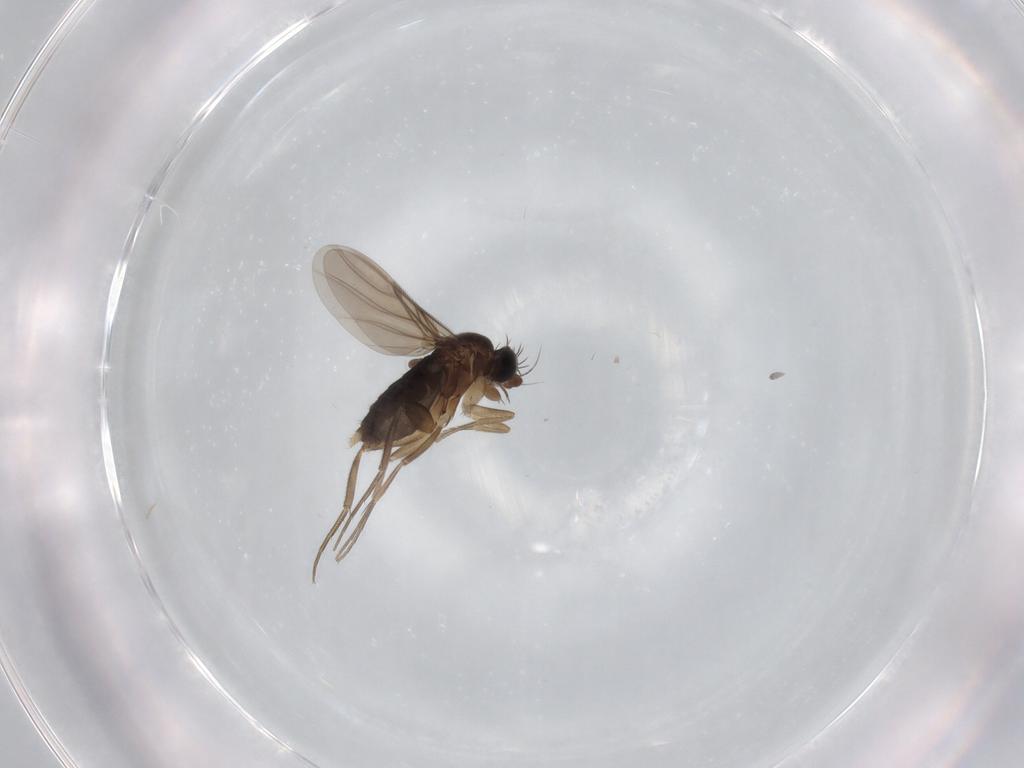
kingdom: Animalia
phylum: Arthropoda
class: Insecta
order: Diptera
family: Phoridae
